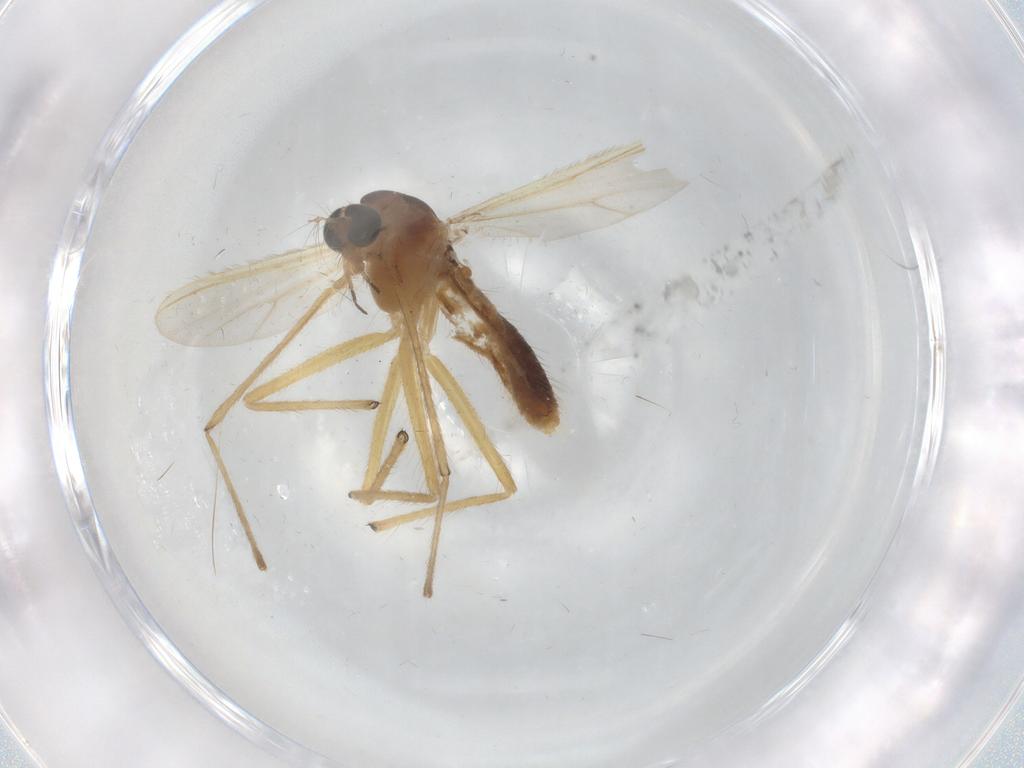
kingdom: Animalia
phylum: Arthropoda
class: Insecta
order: Diptera
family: Chironomidae
